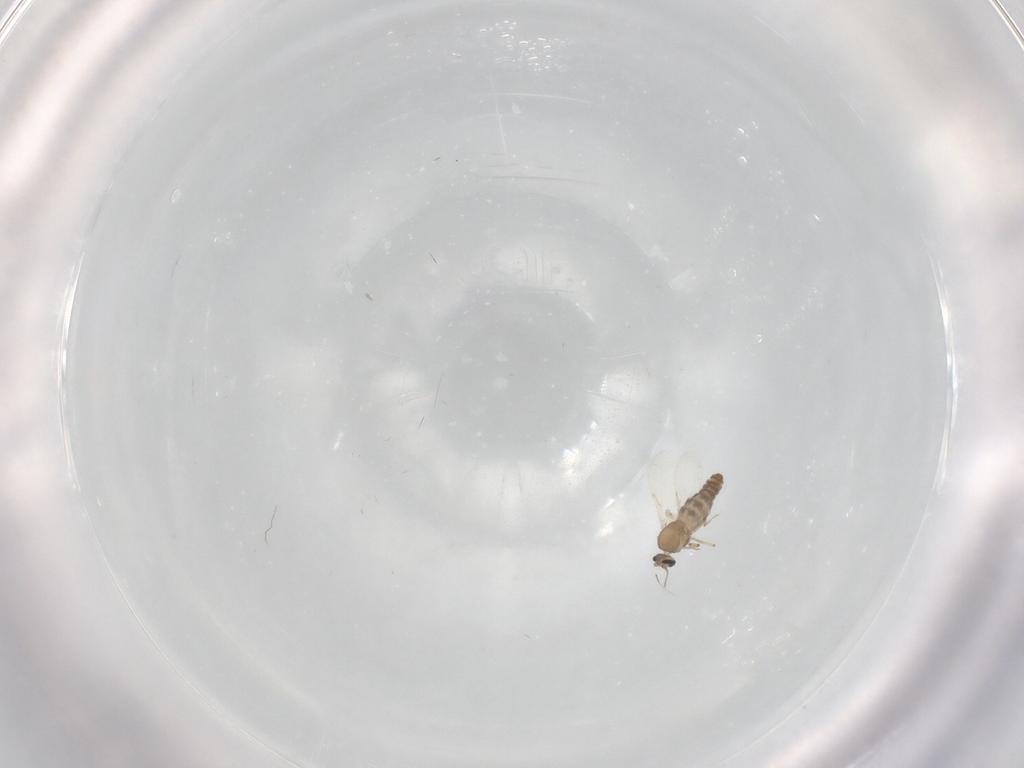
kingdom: Animalia
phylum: Arthropoda
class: Insecta
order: Diptera
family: Ceratopogonidae
